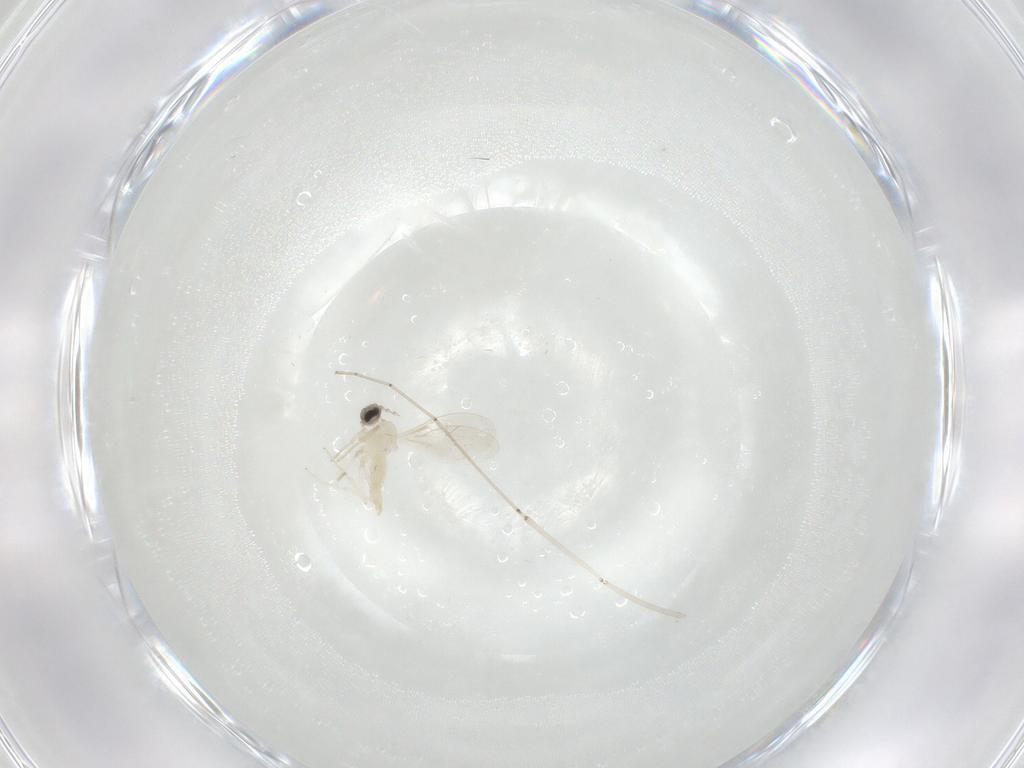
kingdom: Animalia
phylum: Arthropoda
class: Insecta
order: Diptera
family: Cecidomyiidae
